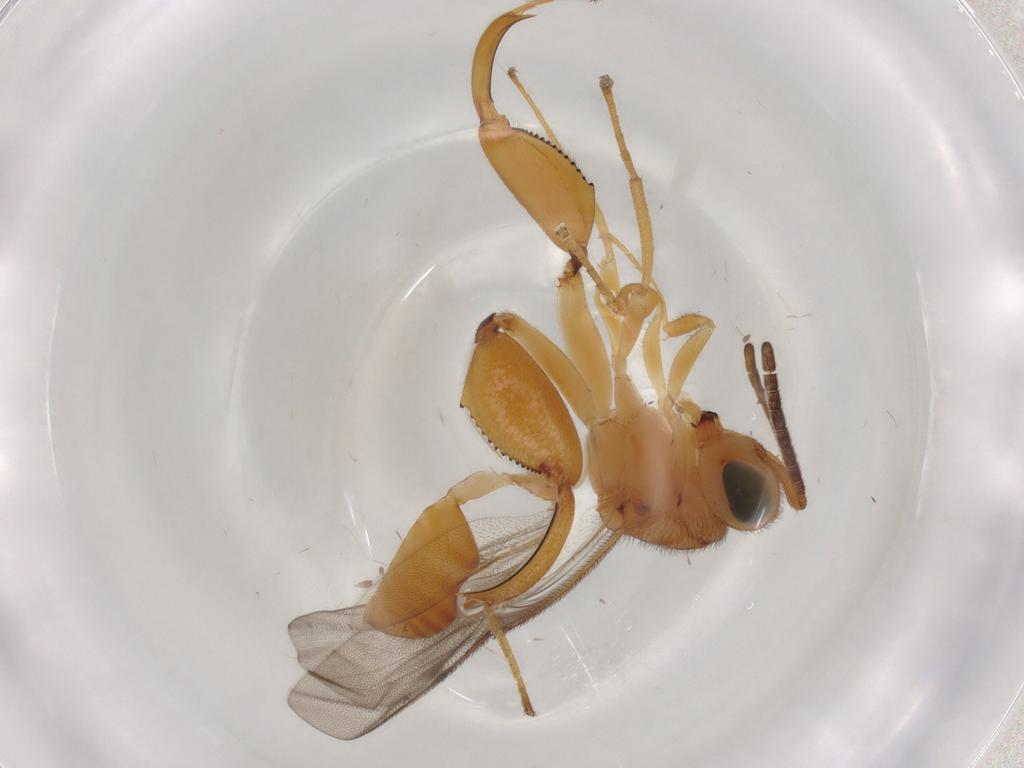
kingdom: Animalia
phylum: Arthropoda
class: Insecta
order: Hymenoptera
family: Chalcididae
